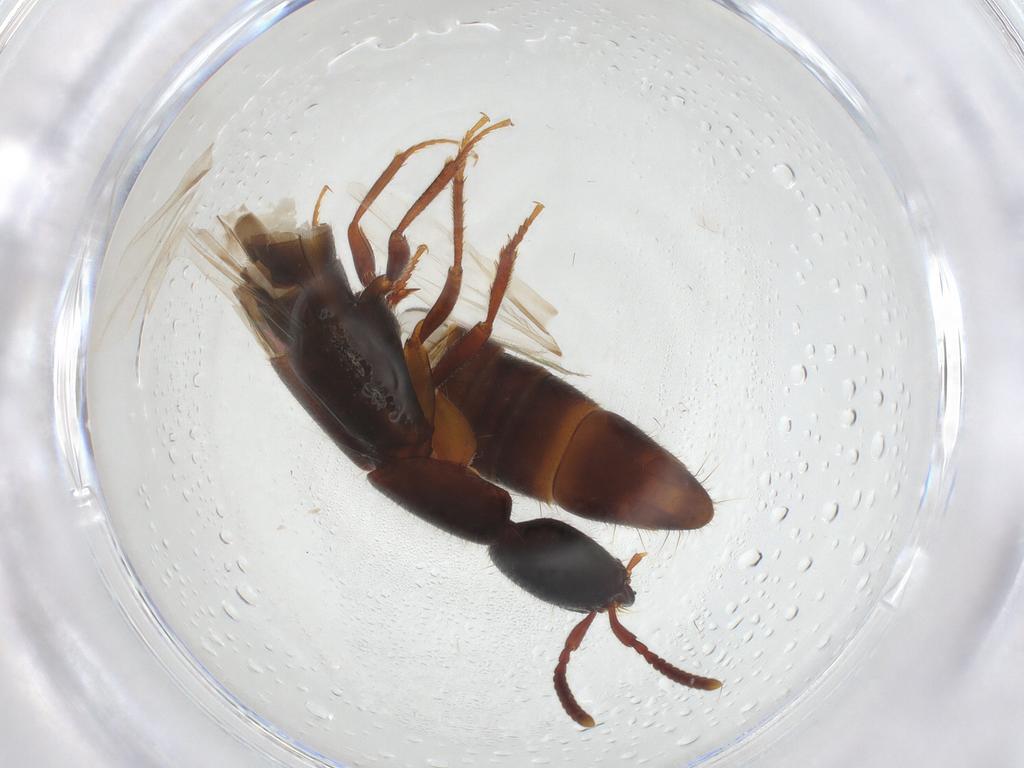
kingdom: Animalia
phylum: Arthropoda
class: Insecta
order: Coleoptera
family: Staphylinidae
